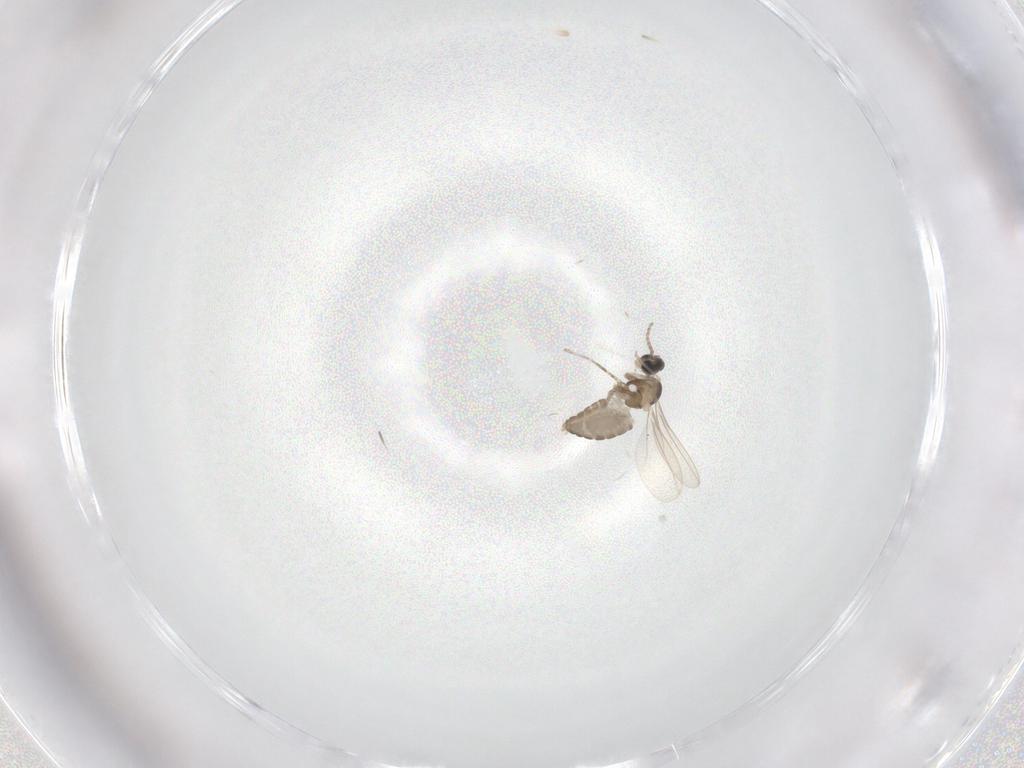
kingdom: Animalia
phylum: Arthropoda
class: Insecta
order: Diptera
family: Cecidomyiidae
